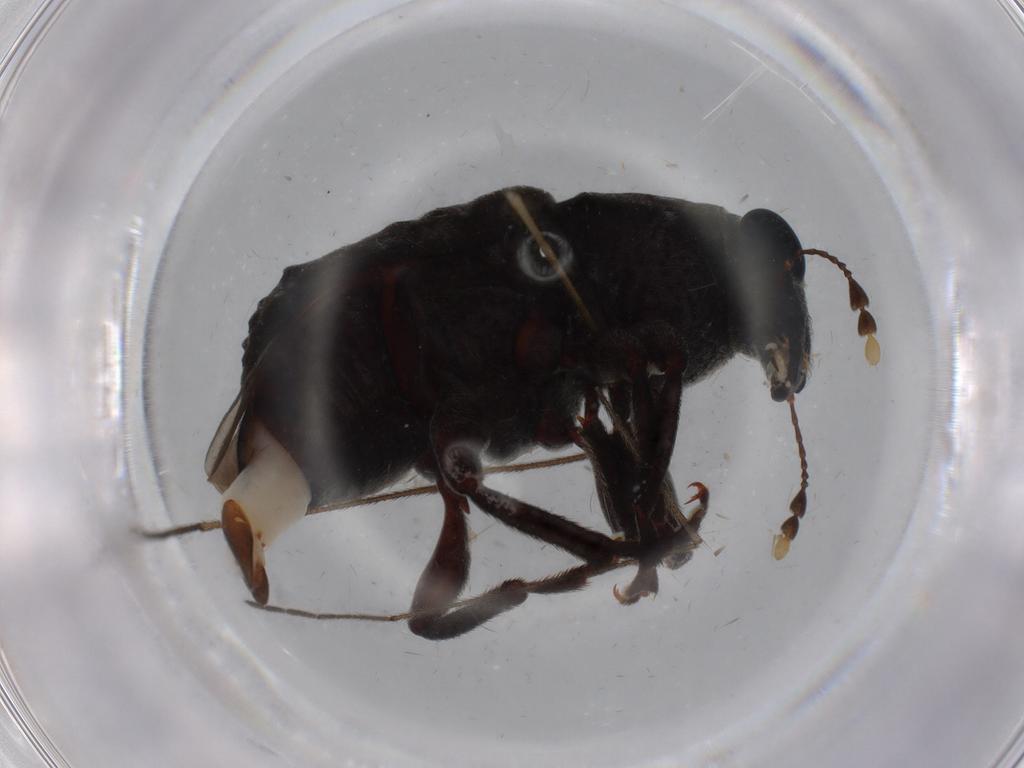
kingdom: Animalia
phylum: Arthropoda
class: Insecta
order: Coleoptera
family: Anthribidae
